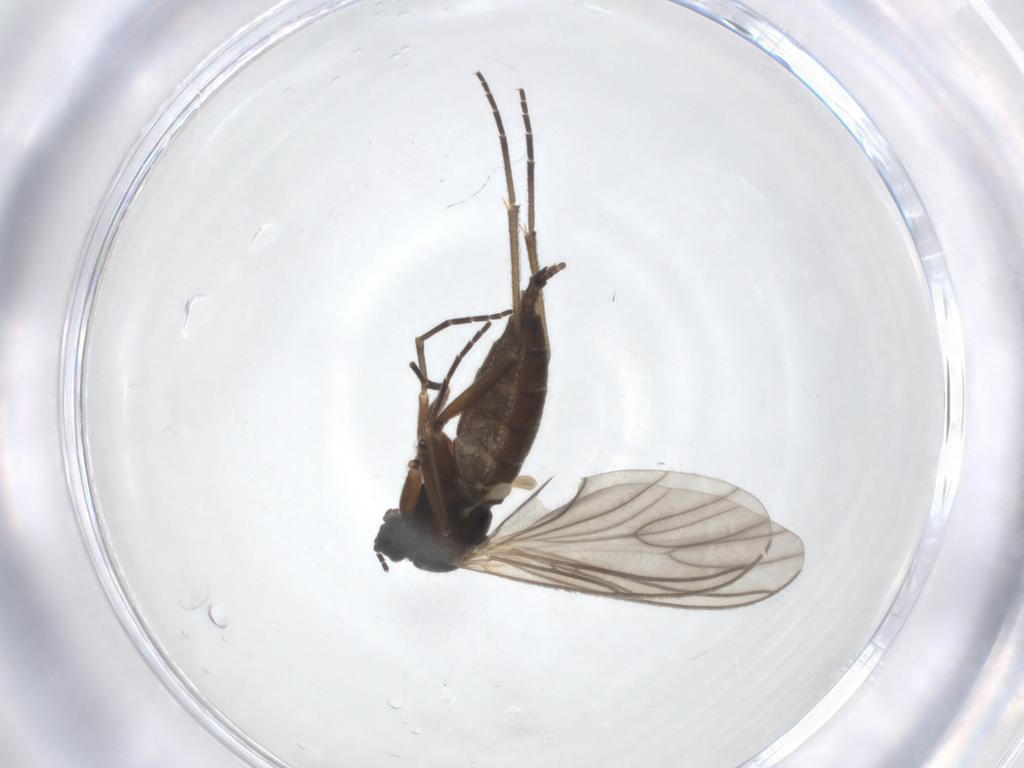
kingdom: Animalia
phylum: Arthropoda
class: Insecta
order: Diptera
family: Sciaridae
